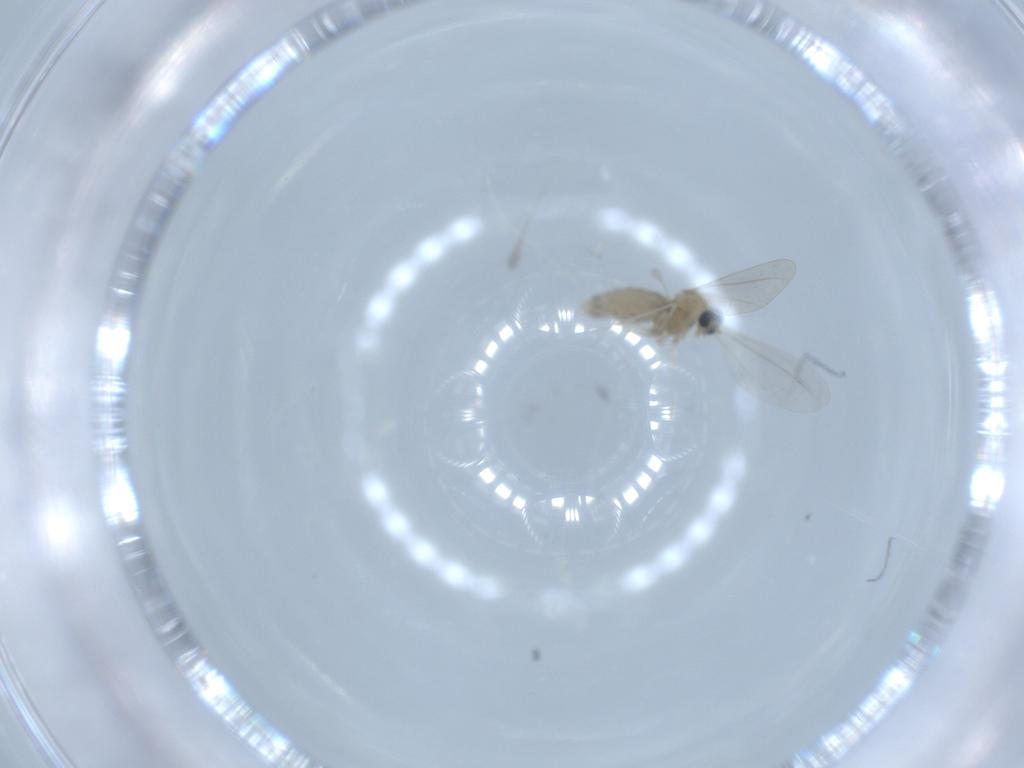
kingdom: Animalia
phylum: Arthropoda
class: Insecta
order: Diptera
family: Cecidomyiidae
